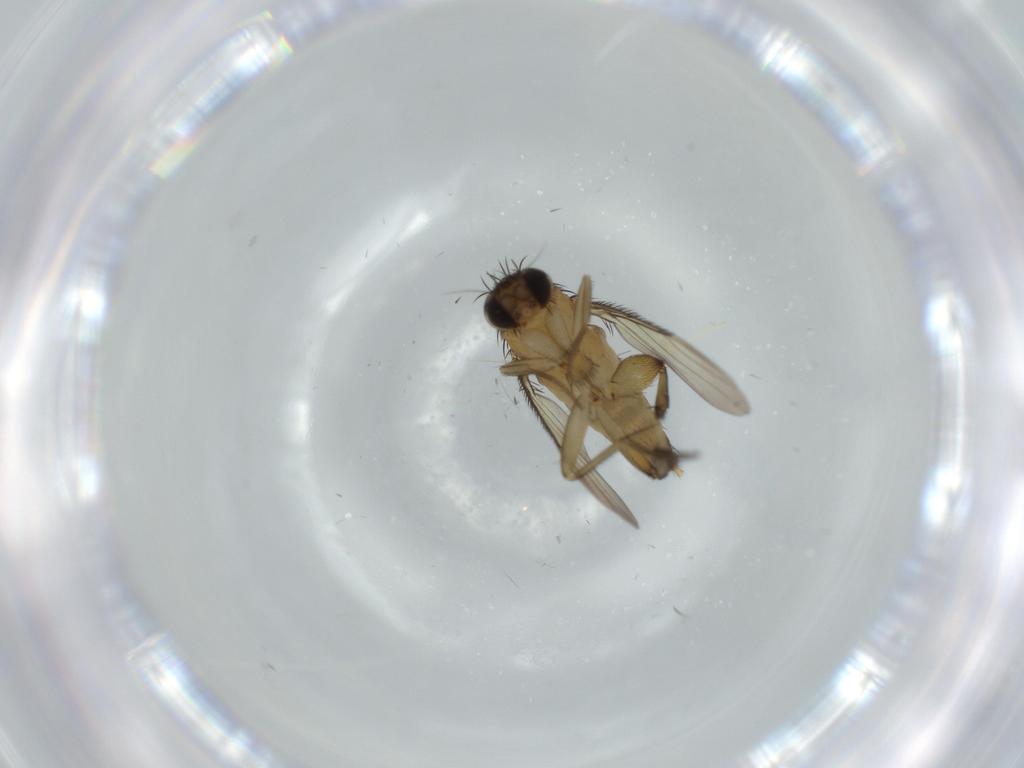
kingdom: Animalia
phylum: Arthropoda
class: Insecta
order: Diptera
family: Phoridae
